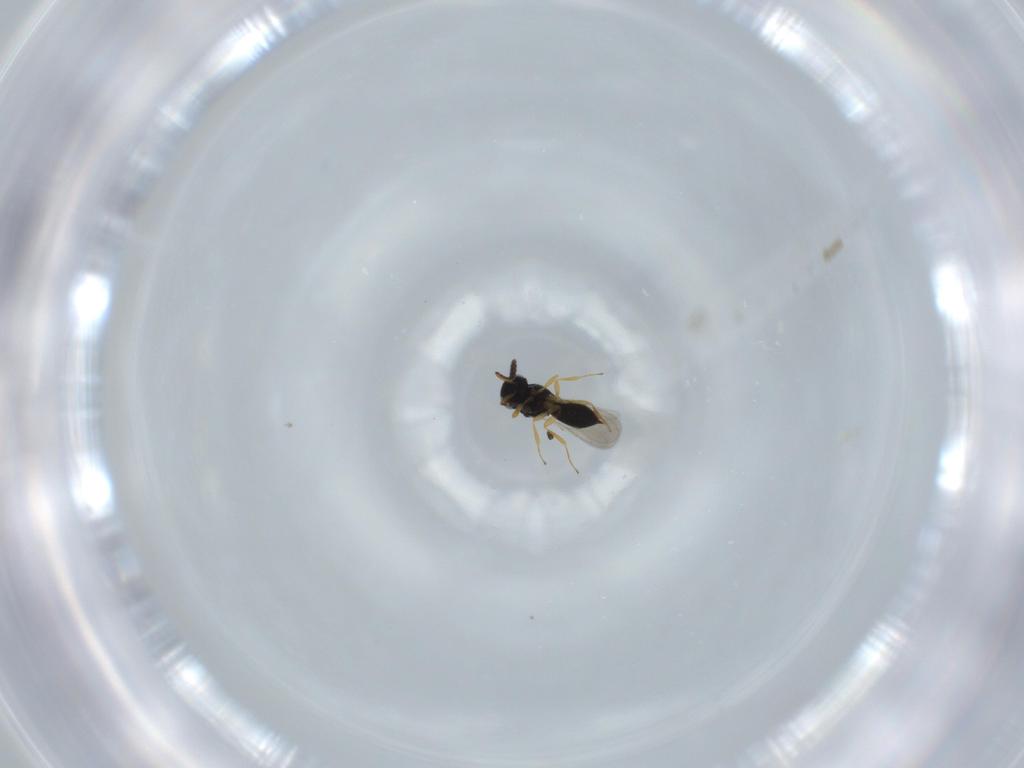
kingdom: Animalia
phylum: Arthropoda
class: Insecta
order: Hymenoptera
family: Scelionidae
